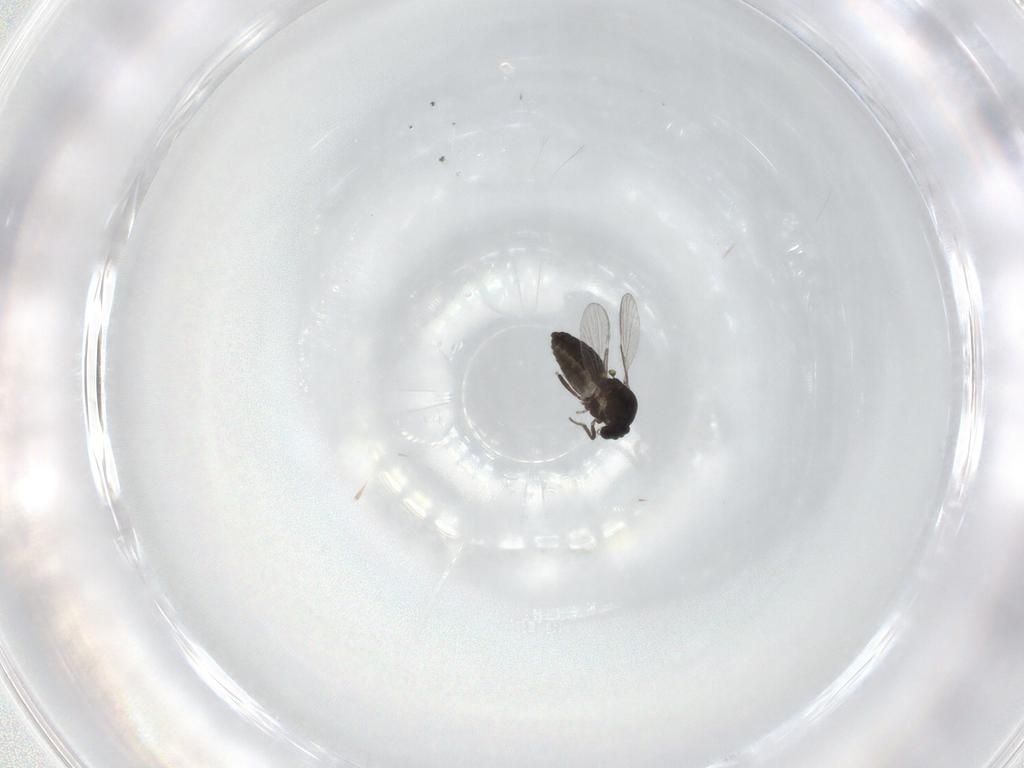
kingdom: Animalia
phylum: Arthropoda
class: Insecta
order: Diptera
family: Ceratopogonidae
